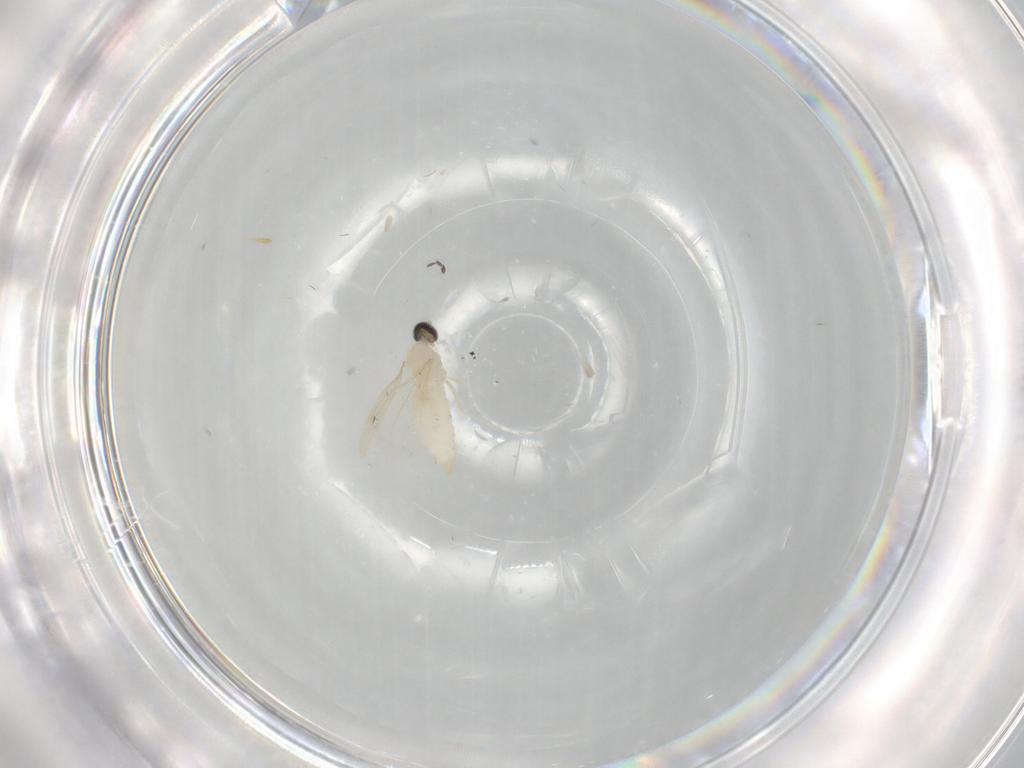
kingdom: Animalia
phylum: Arthropoda
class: Insecta
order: Diptera
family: Cecidomyiidae
